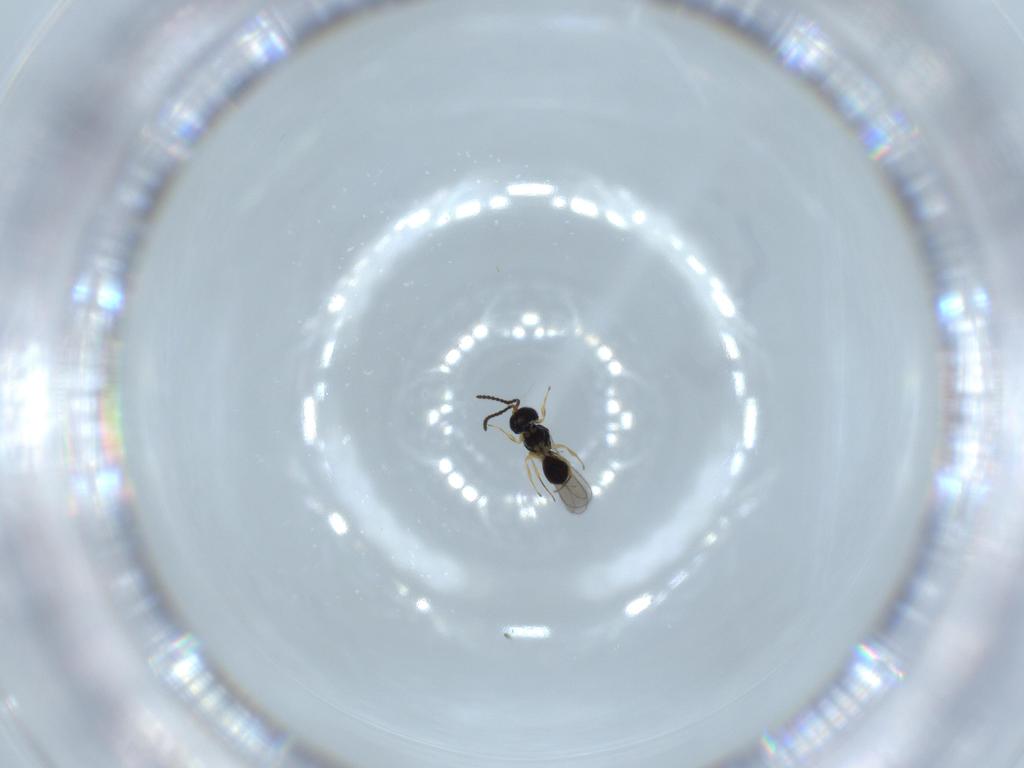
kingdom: Animalia
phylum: Arthropoda
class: Insecta
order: Hymenoptera
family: Scelionidae
